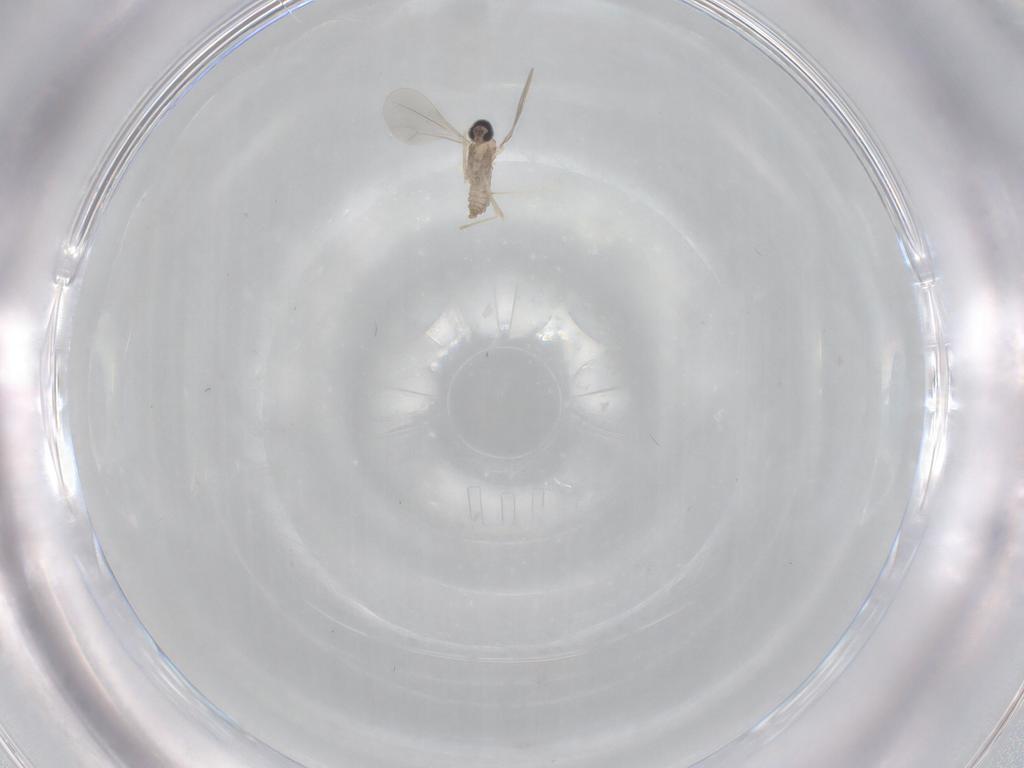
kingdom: Animalia
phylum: Arthropoda
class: Insecta
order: Diptera
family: Cecidomyiidae
